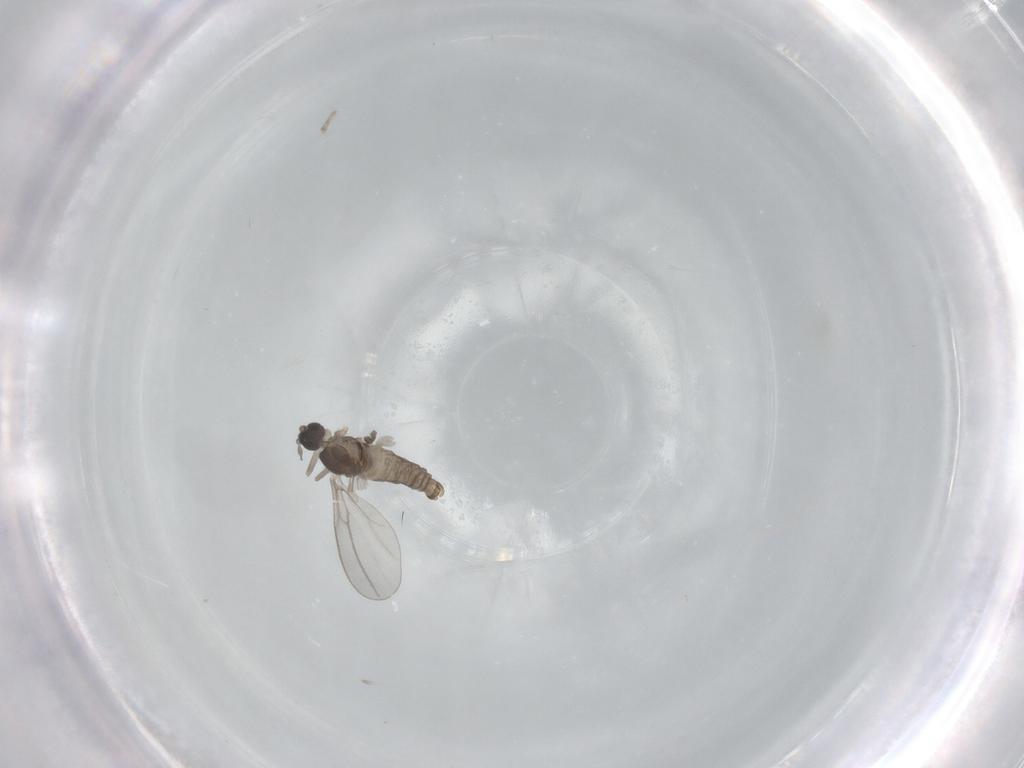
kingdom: Animalia
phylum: Arthropoda
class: Insecta
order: Diptera
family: Cecidomyiidae
